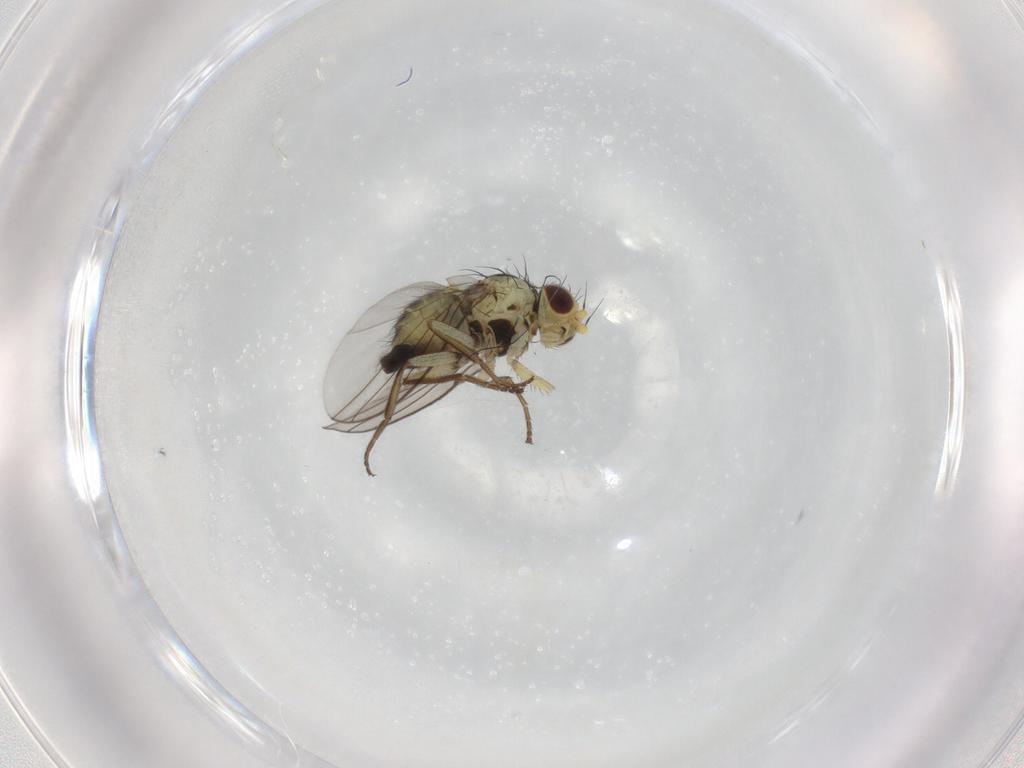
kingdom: Animalia
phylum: Arthropoda
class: Insecta
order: Diptera
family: Agromyzidae
